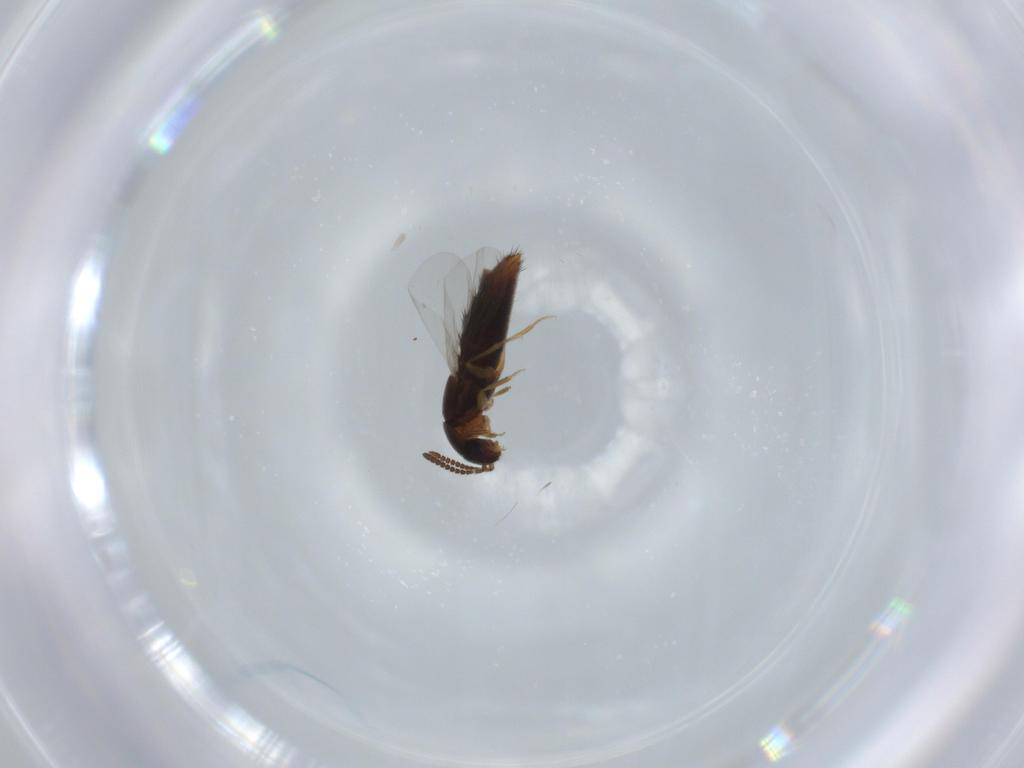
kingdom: Animalia
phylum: Arthropoda
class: Insecta
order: Coleoptera
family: Staphylinidae
